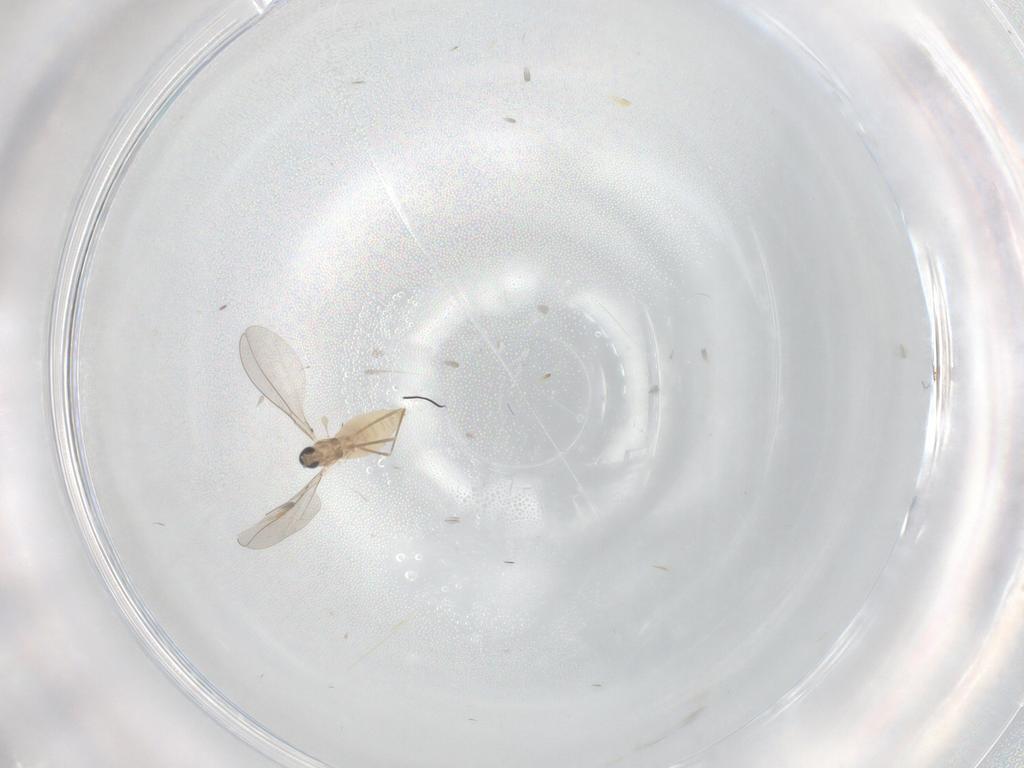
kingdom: Animalia
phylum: Arthropoda
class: Insecta
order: Diptera
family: Cecidomyiidae
